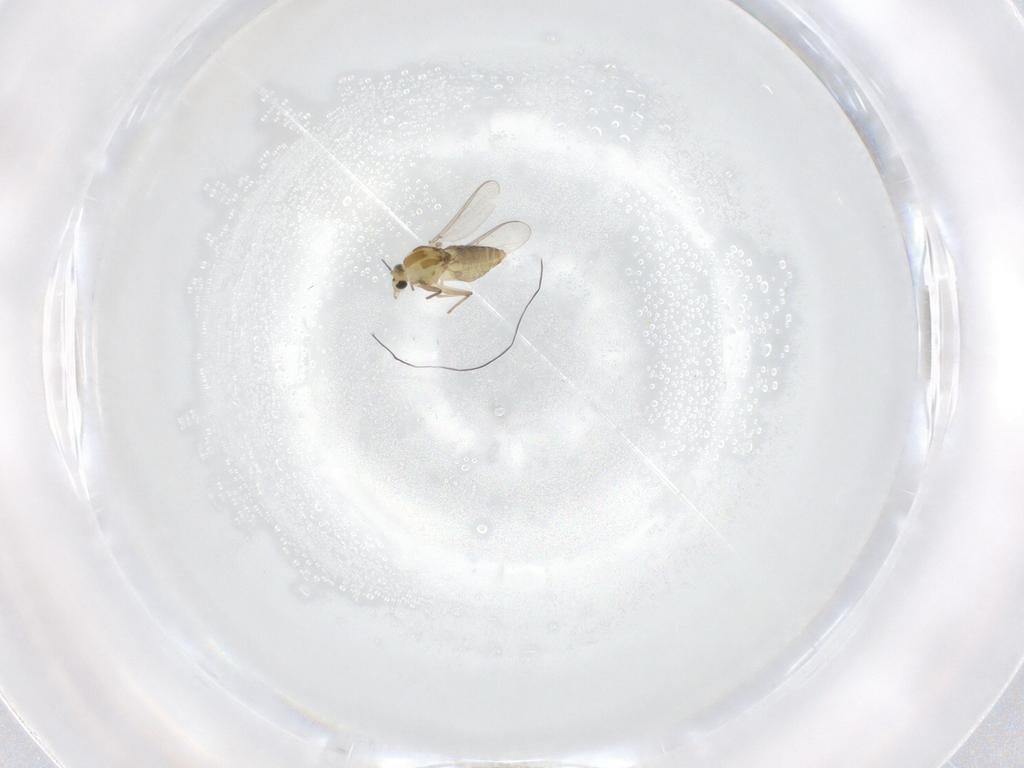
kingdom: Animalia
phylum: Arthropoda
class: Insecta
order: Diptera
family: Chironomidae
